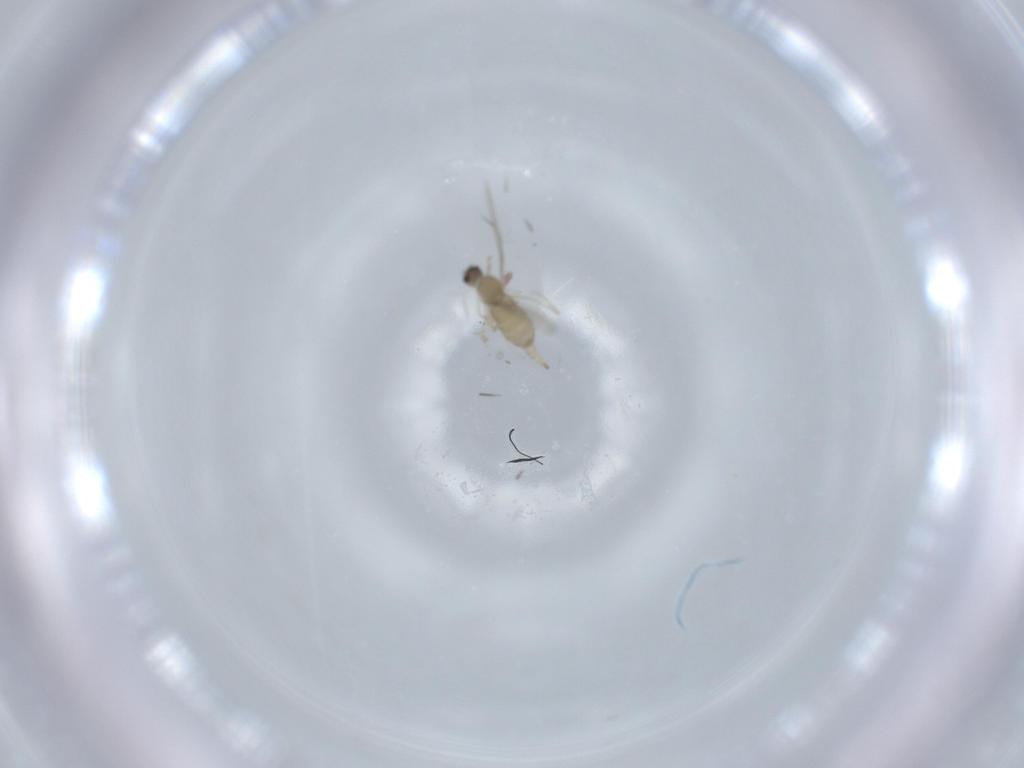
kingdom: Animalia
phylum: Arthropoda
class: Insecta
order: Diptera
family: Cecidomyiidae
